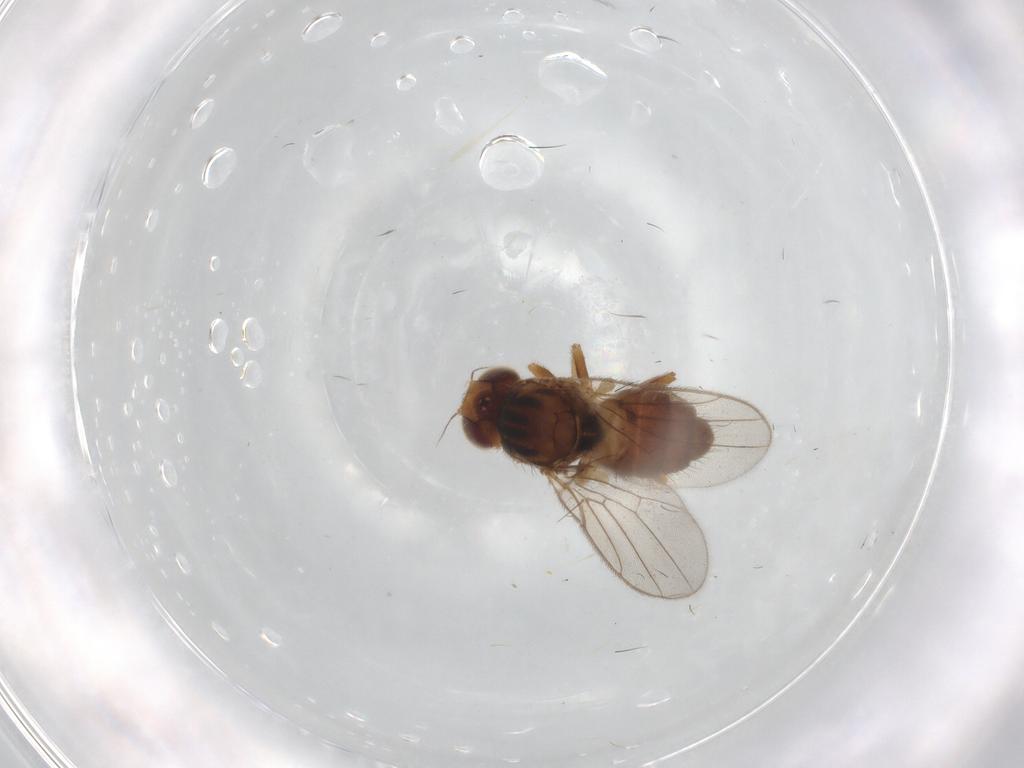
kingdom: Animalia
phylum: Arthropoda
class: Insecta
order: Diptera
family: Chloropidae
